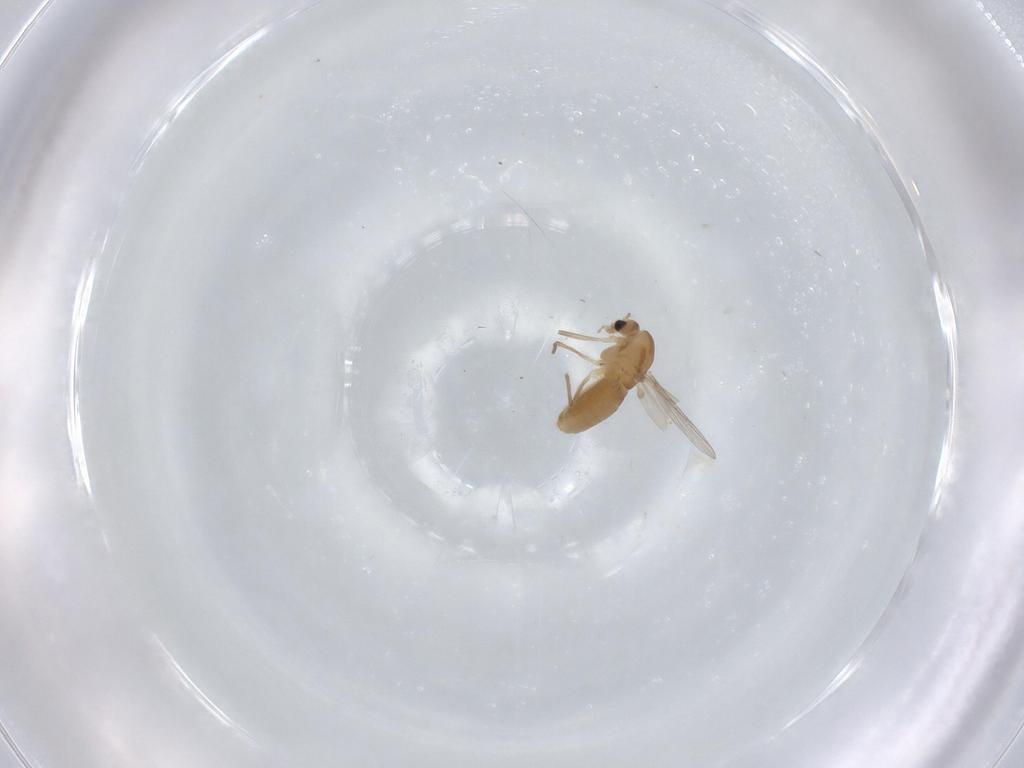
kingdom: Animalia
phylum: Arthropoda
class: Insecta
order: Diptera
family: Chironomidae
